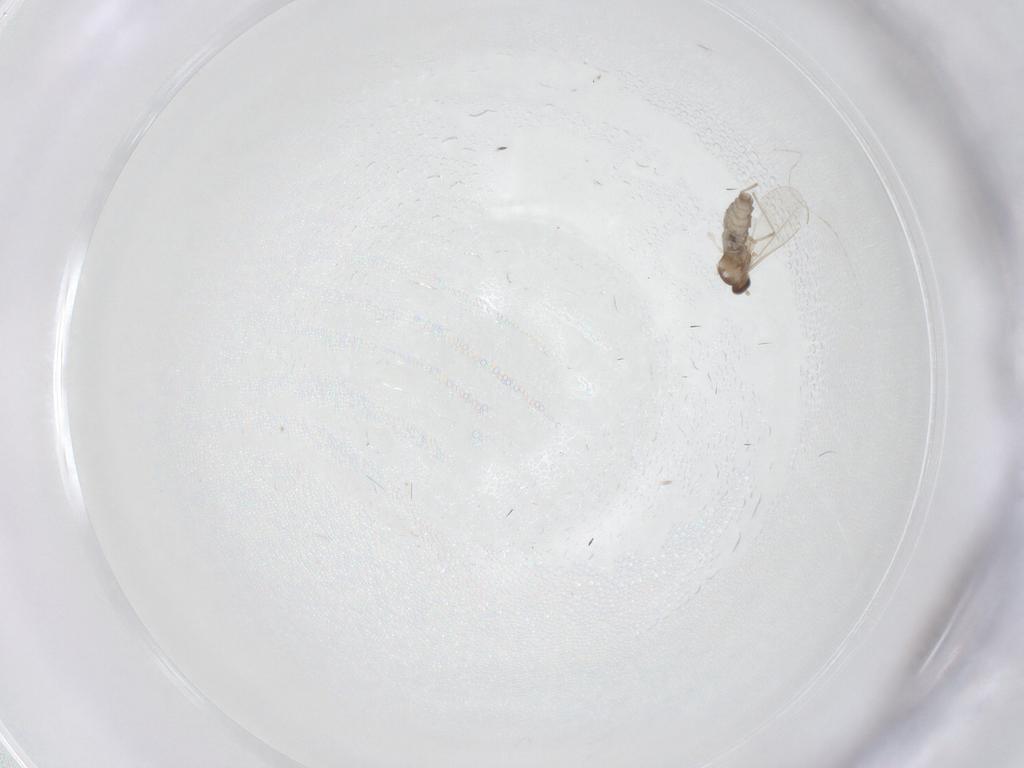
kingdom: Animalia
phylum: Arthropoda
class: Insecta
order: Diptera
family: Cecidomyiidae
